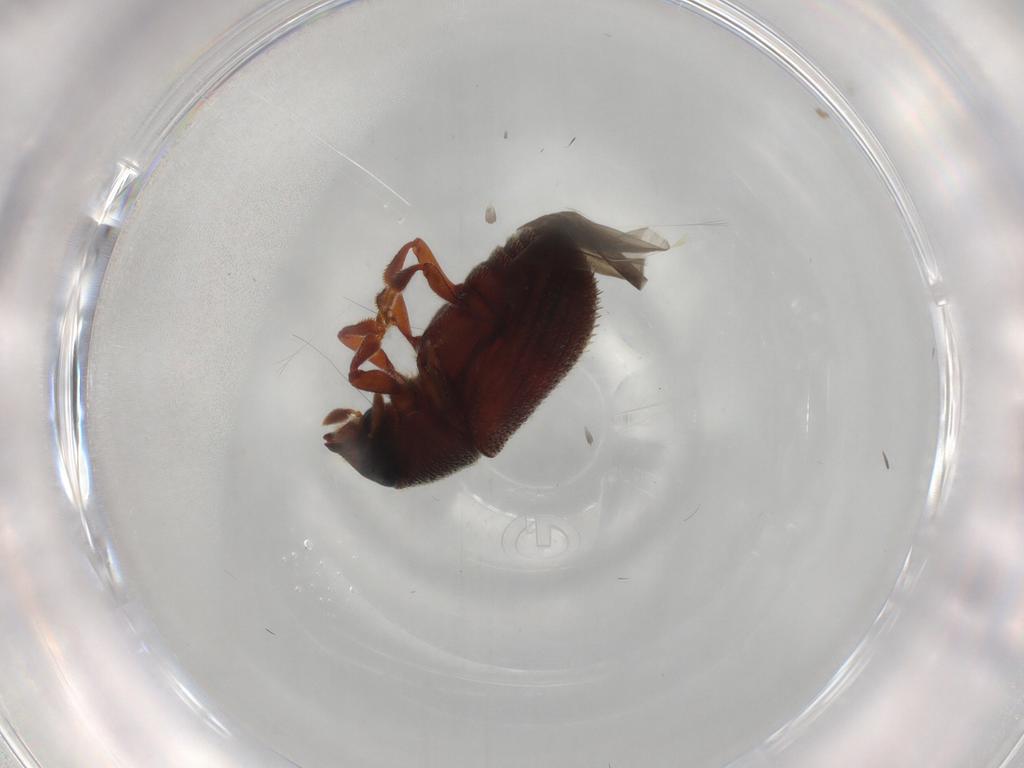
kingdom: Animalia
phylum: Arthropoda
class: Insecta
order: Coleoptera
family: Curculionidae
